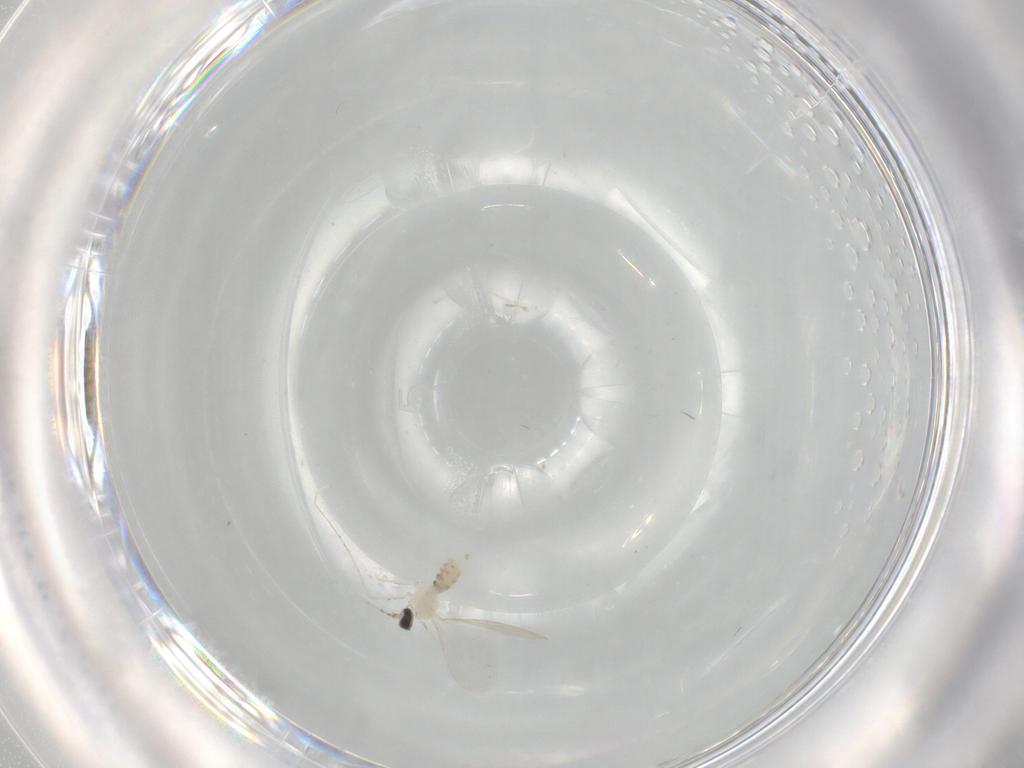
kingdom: Animalia
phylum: Arthropoda
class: Insecta
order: Diptera
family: Cecidomyiidae
